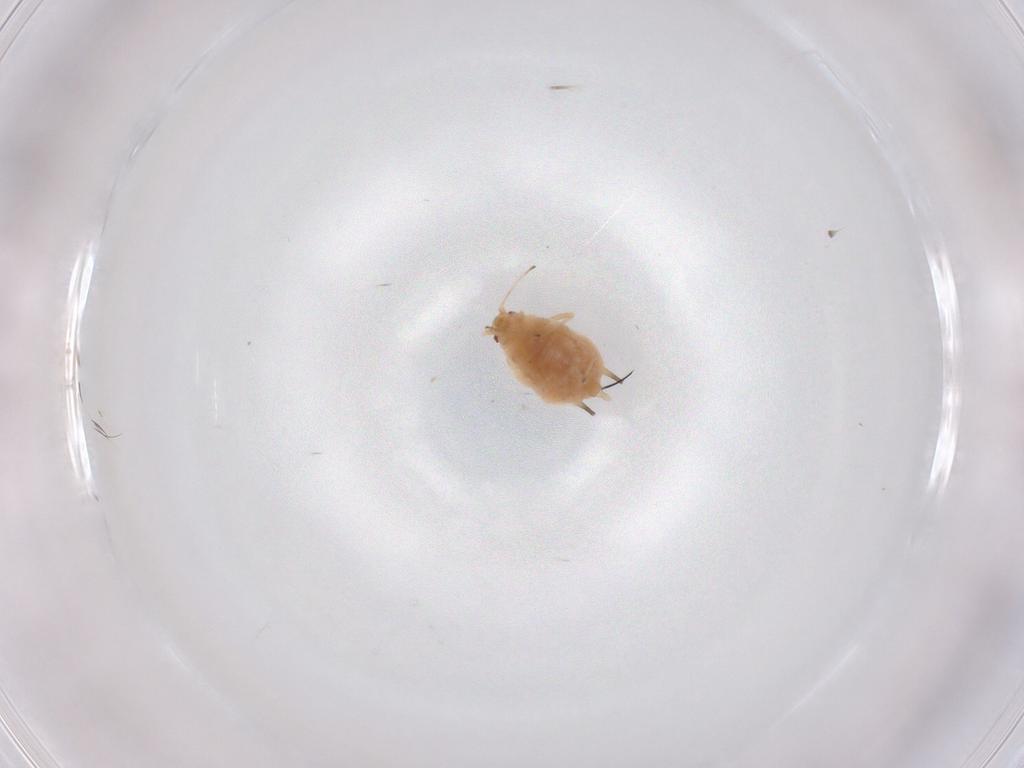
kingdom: Animalia
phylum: Arthropoda
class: Insecta
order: Hemiptera
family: Aphididae
